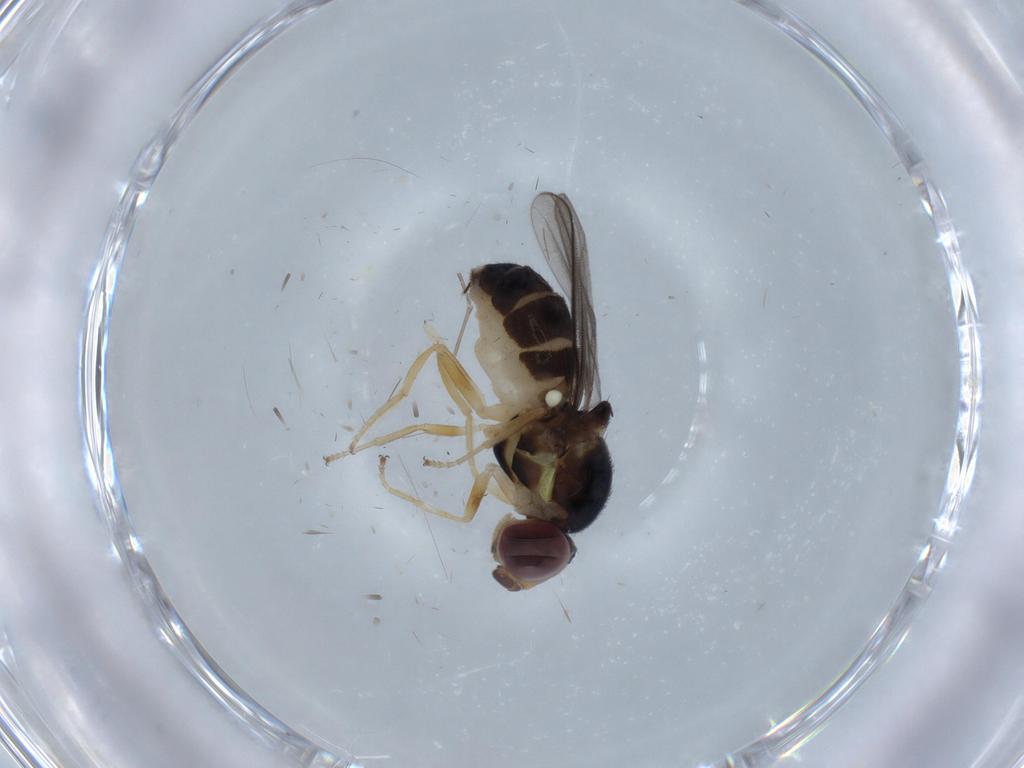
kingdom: Animalia
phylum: Arthropoda
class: Insecta
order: Diptera
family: Chloropidae
